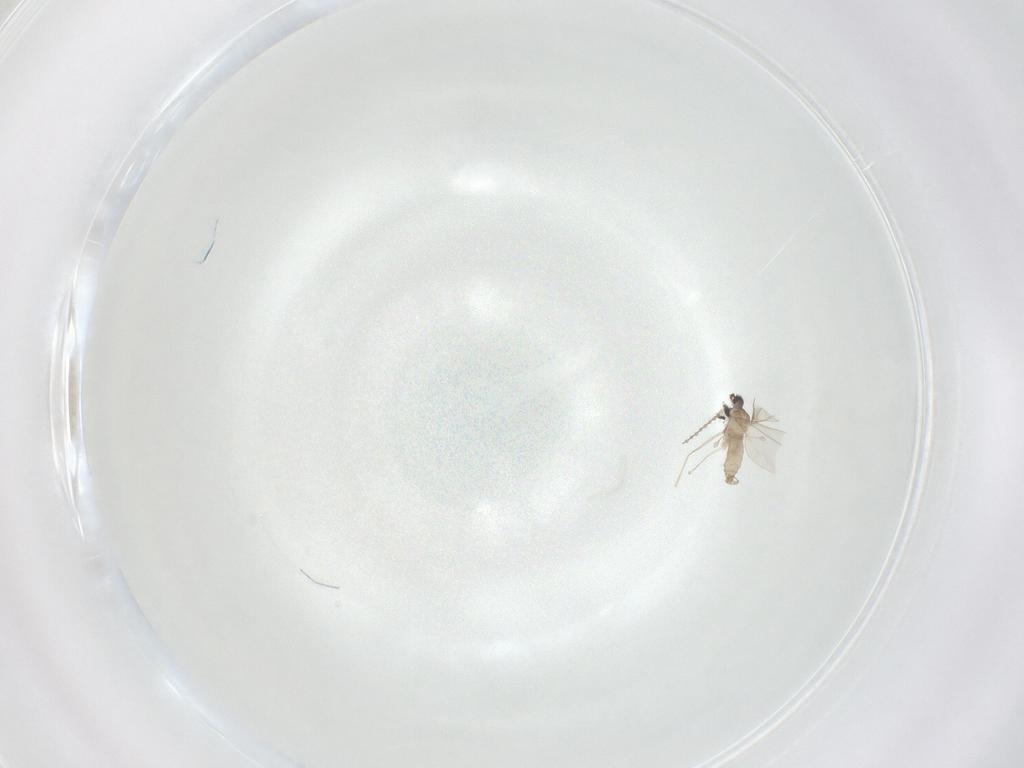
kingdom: Animalia
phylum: Arthropoda
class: Insecta
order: Diptera
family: Cecidomyiidae
